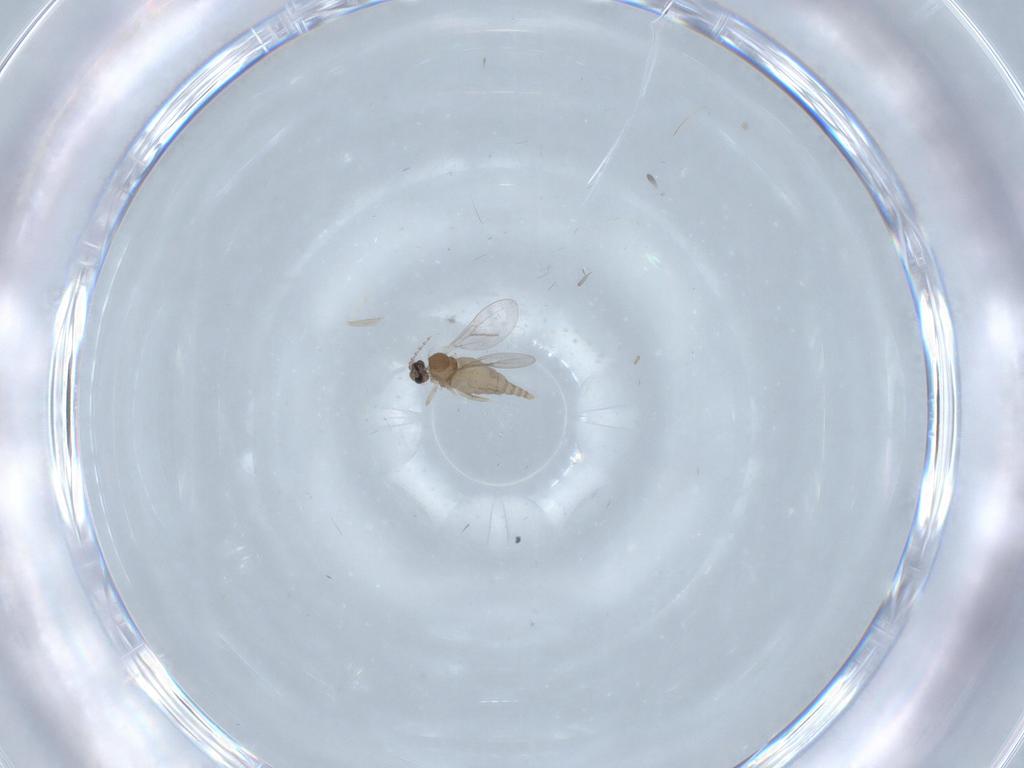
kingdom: Animalia
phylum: Arthropoda
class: Insecta
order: Diptera
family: Cecidomyiidae
